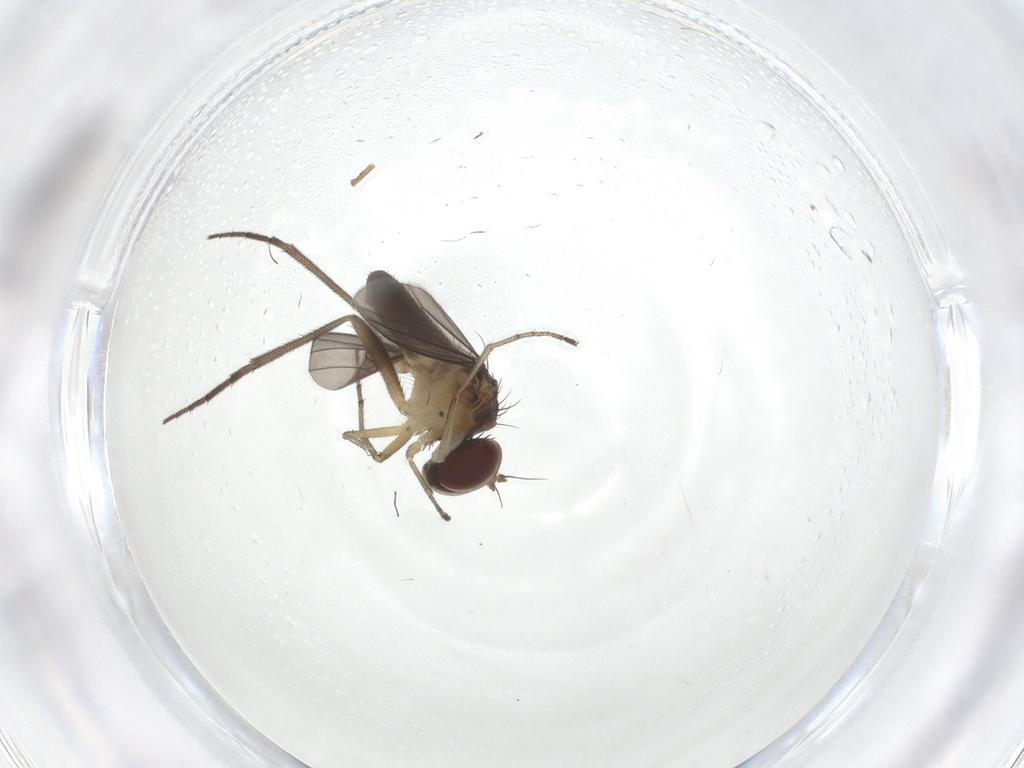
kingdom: Animalia
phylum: Arthropoda
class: Insecta
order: Diptera
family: Dolichopodidae
